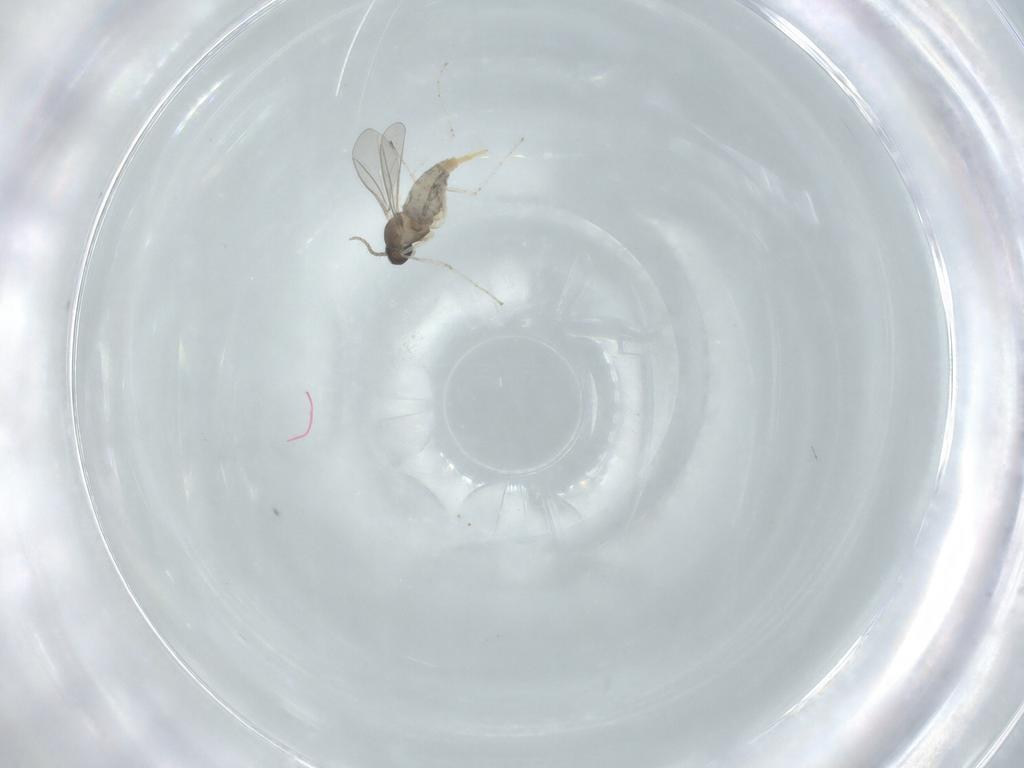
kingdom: Animalia
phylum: Arthropoda
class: Insecta
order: Diptera
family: Cecidomyiidae
